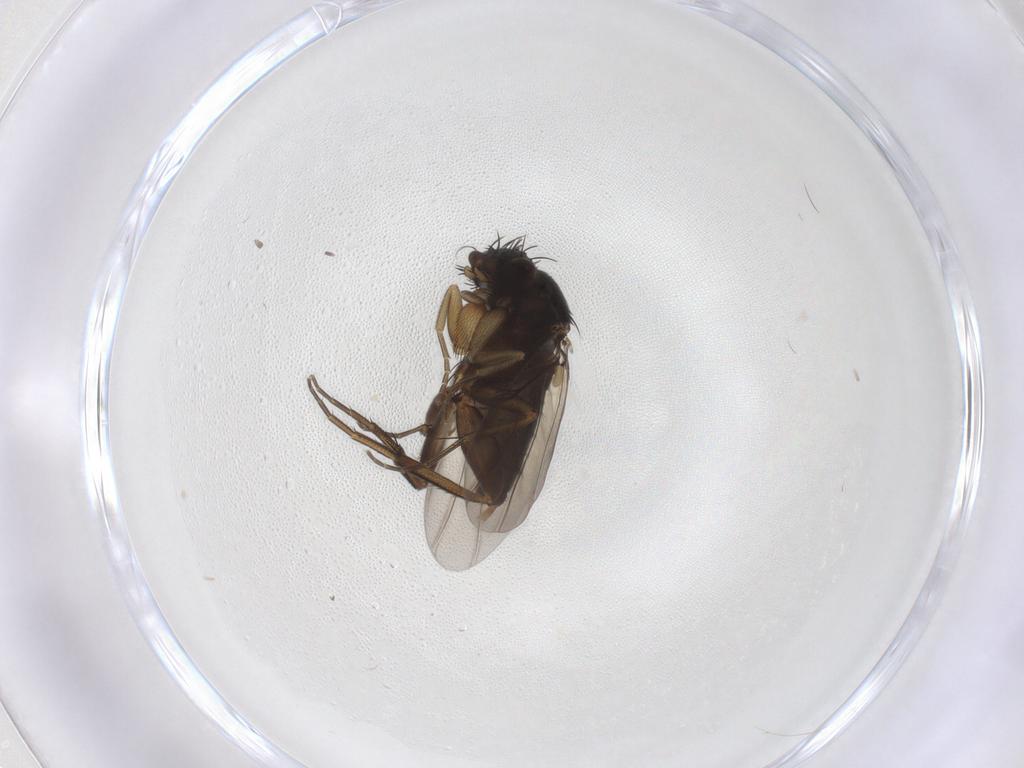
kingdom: Animalia
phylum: Arthropoda
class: Insecta
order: Diptera
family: Phoridae
